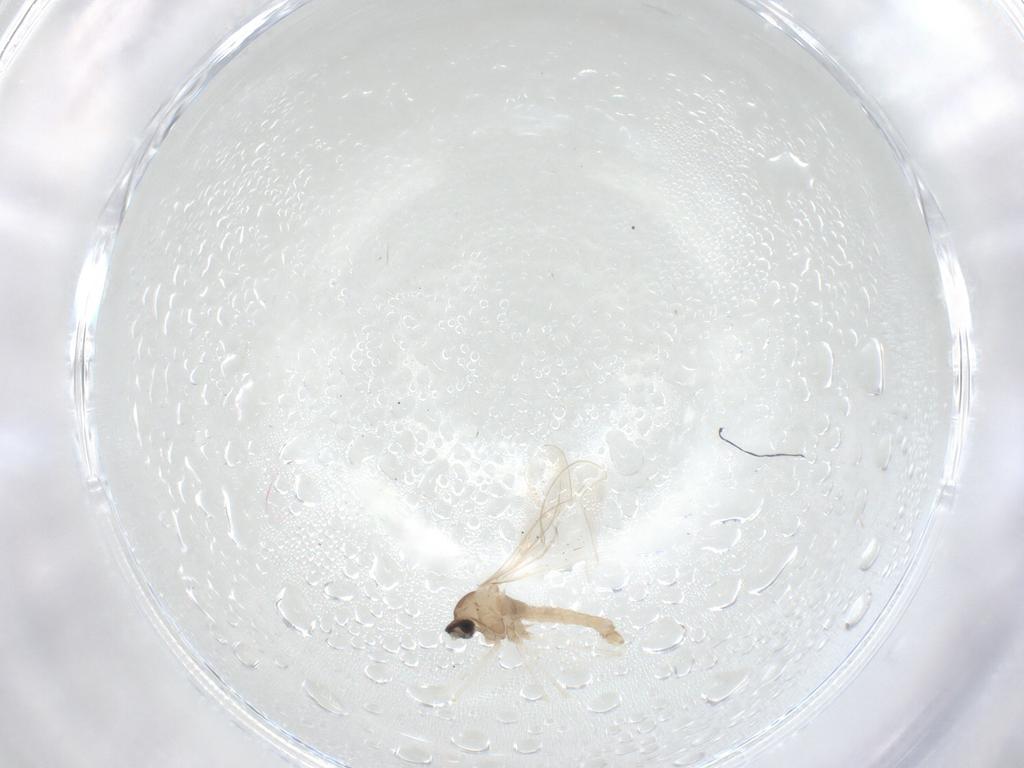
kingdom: Animalia
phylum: Arthropoda
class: Insecta
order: Diptera
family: Cecidomyiidae
